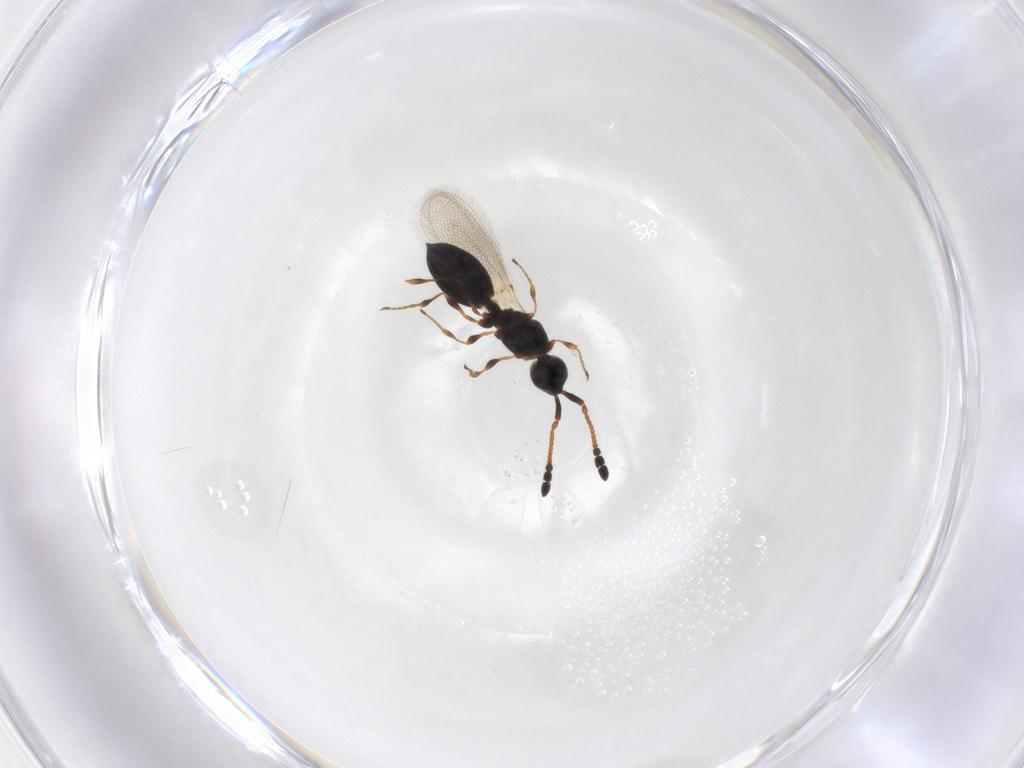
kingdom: Animalia
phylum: Arthropoda
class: Insecta
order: Hymenoptera
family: Diapriidae
